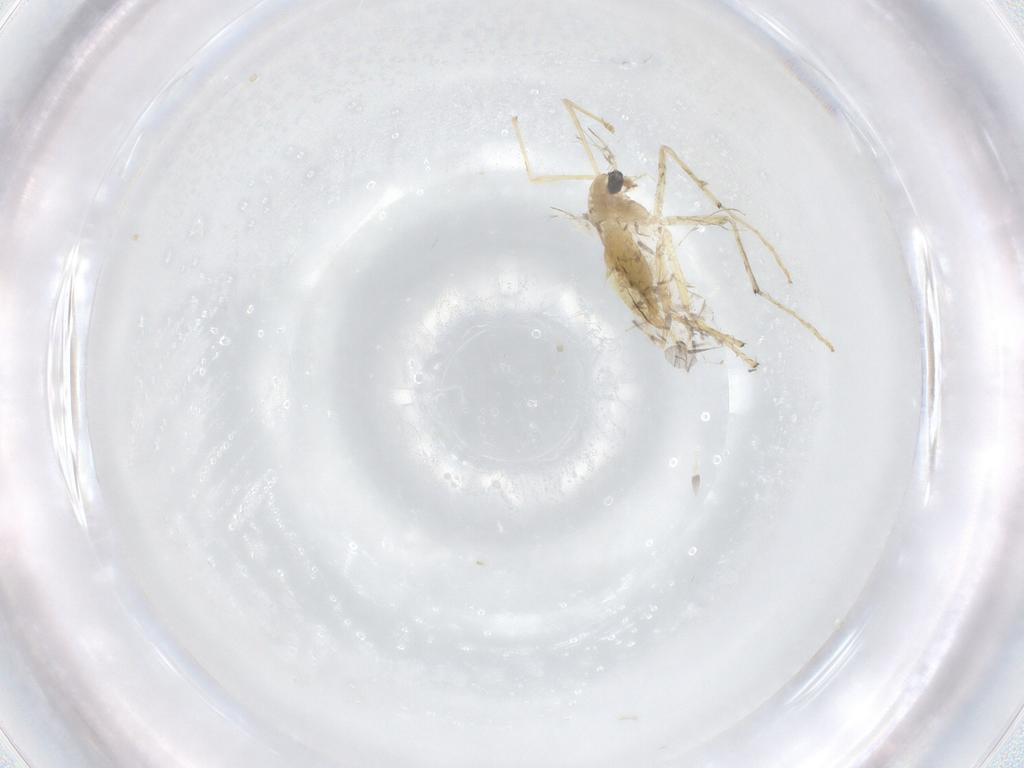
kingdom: Animalia
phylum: Arthropoda
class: Insecta
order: Diptera
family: Chironomidae
